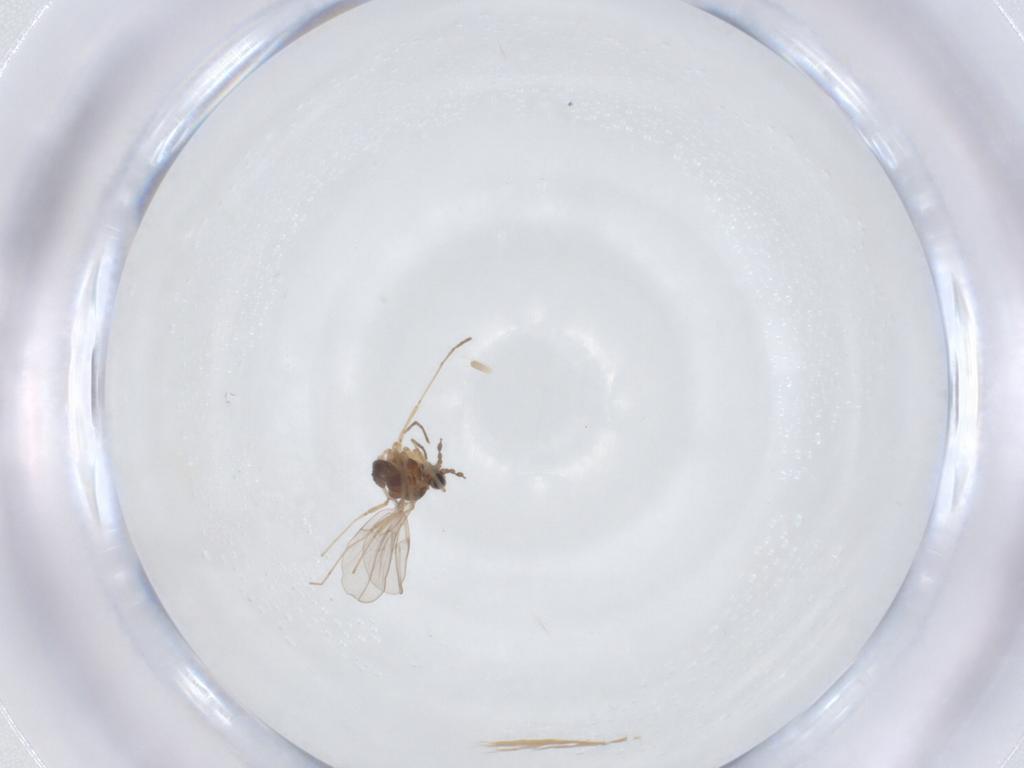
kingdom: Animalia
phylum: Arthropoda
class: Insecta
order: Diptera
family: Cecidomyiidae
